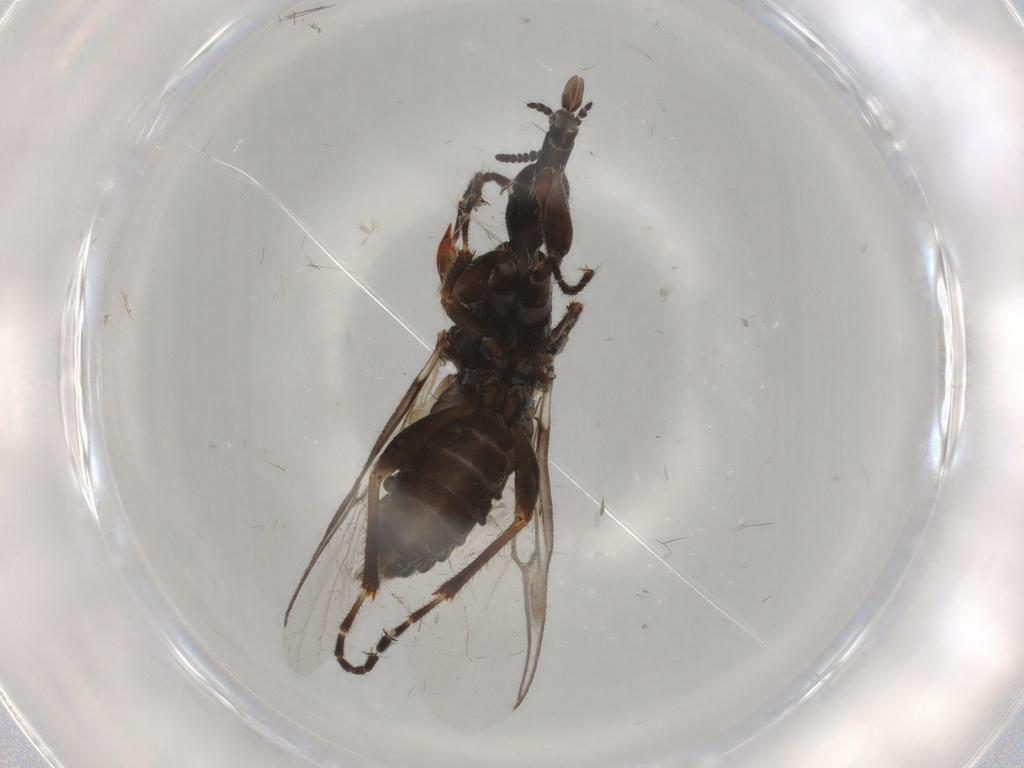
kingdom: Animalia
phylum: Arthropoda
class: Insecta
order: Diptera
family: Bibionidae
